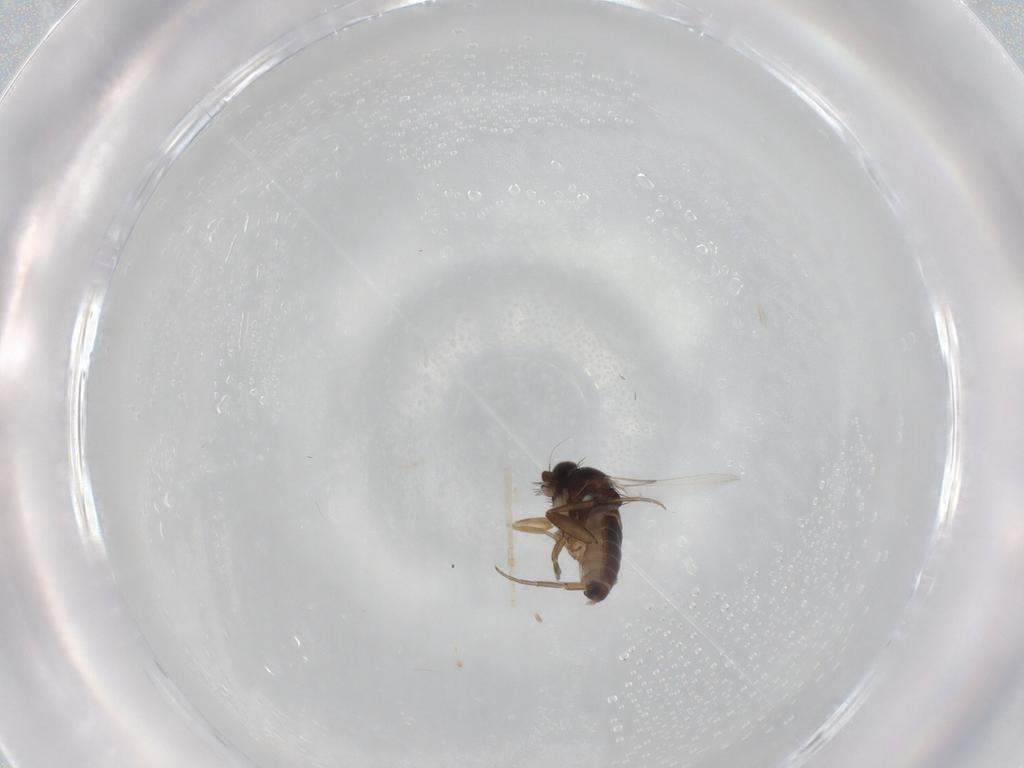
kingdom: Animalia
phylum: Arthropoda
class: Insecta
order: Diptera
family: Phoridae
